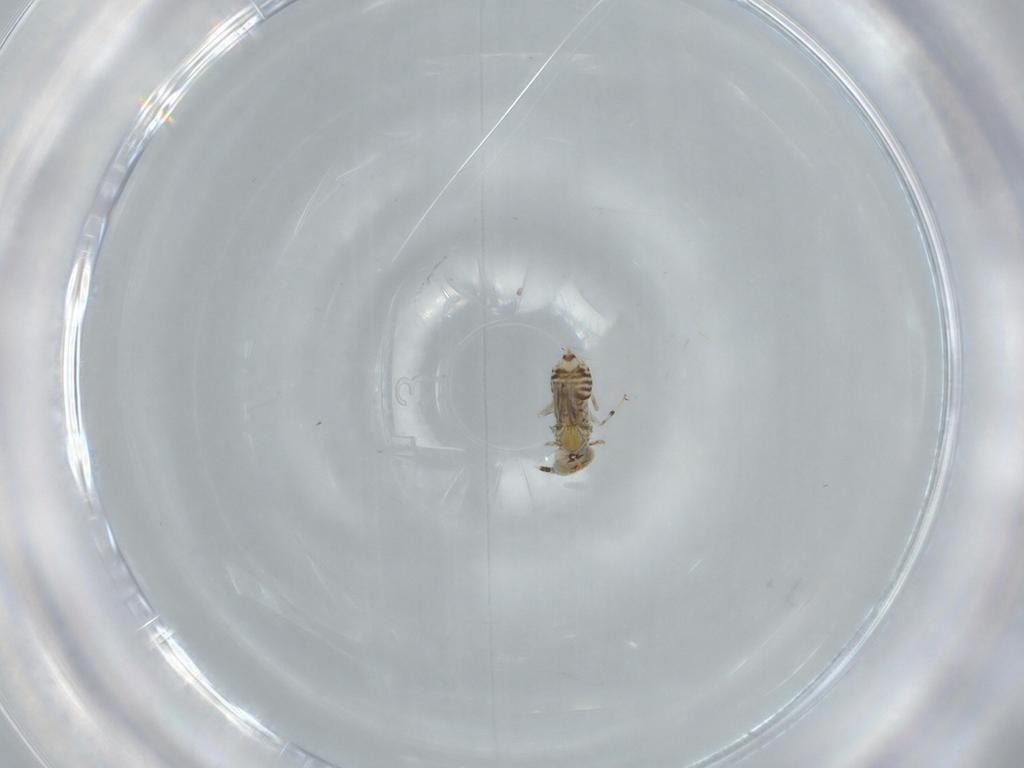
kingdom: Animalia
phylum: Arthropoda
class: Insecta
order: Hymenoptera
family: Aphelinidae
